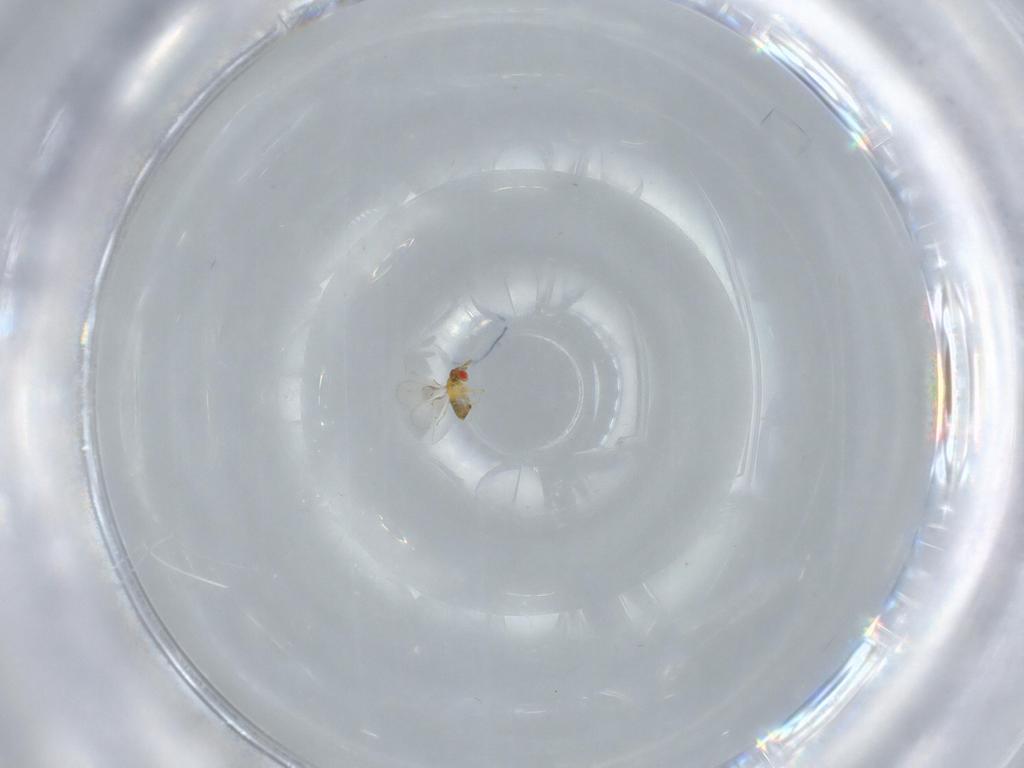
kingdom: Animalia
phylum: Arthropoda
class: Insecta
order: Hymenoptera
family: Trichogrammatidae
